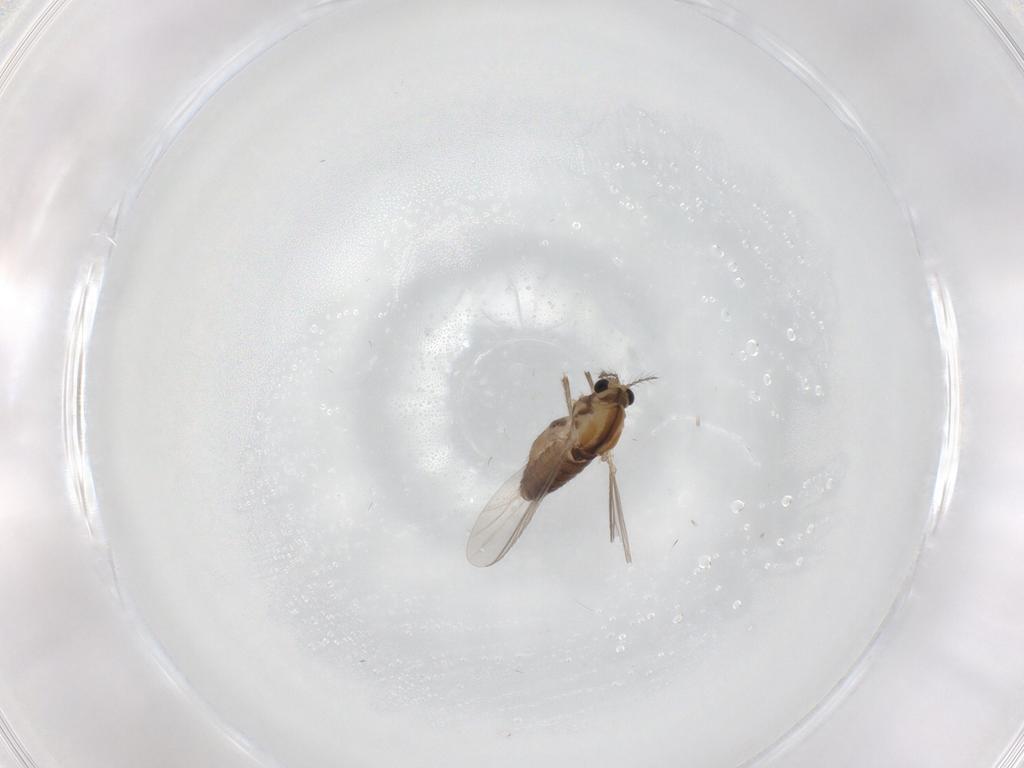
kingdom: Animalia
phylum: Arthropoda
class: Insecta
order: Diptera
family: Chironomidae
